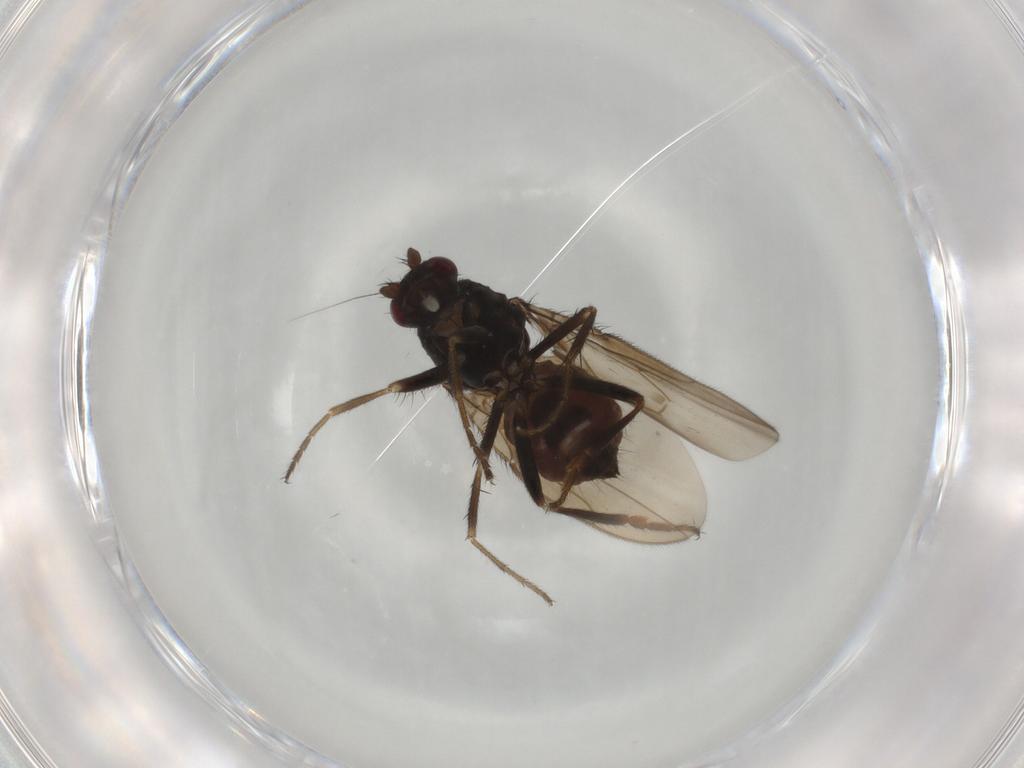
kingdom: Animalia
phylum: Arthropoda
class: Insecta
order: Diptera
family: Sphaeroceridae
